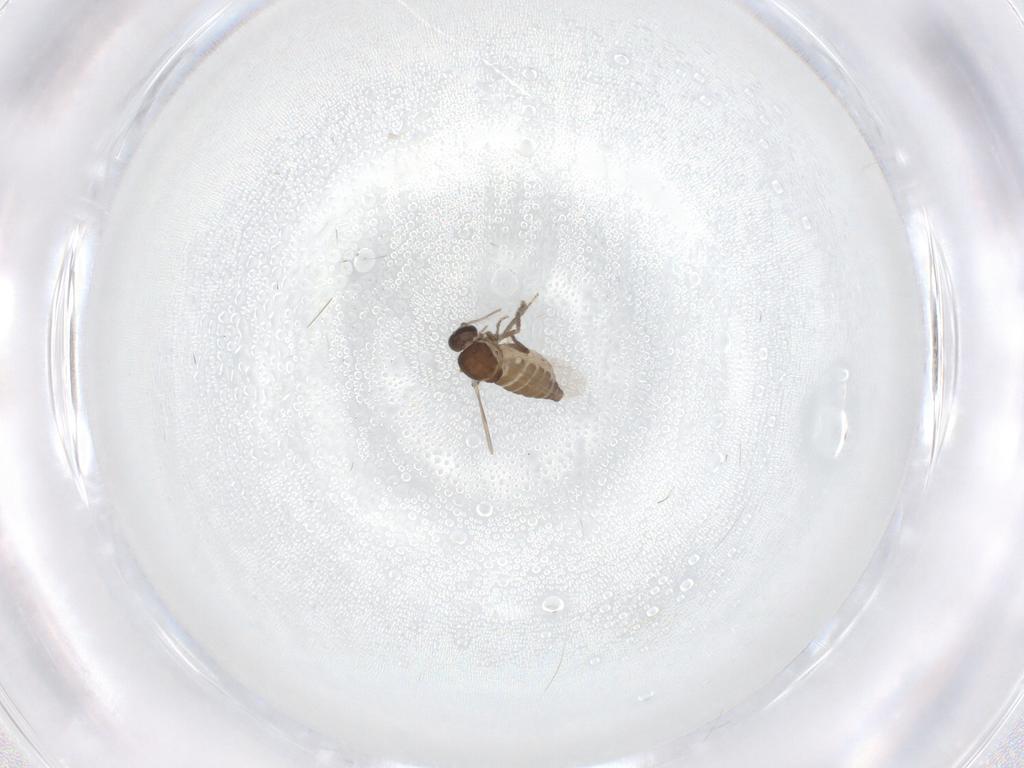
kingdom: Animalia
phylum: Arthropoda
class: Insecta
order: Diptera
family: Ceratopogonidae
